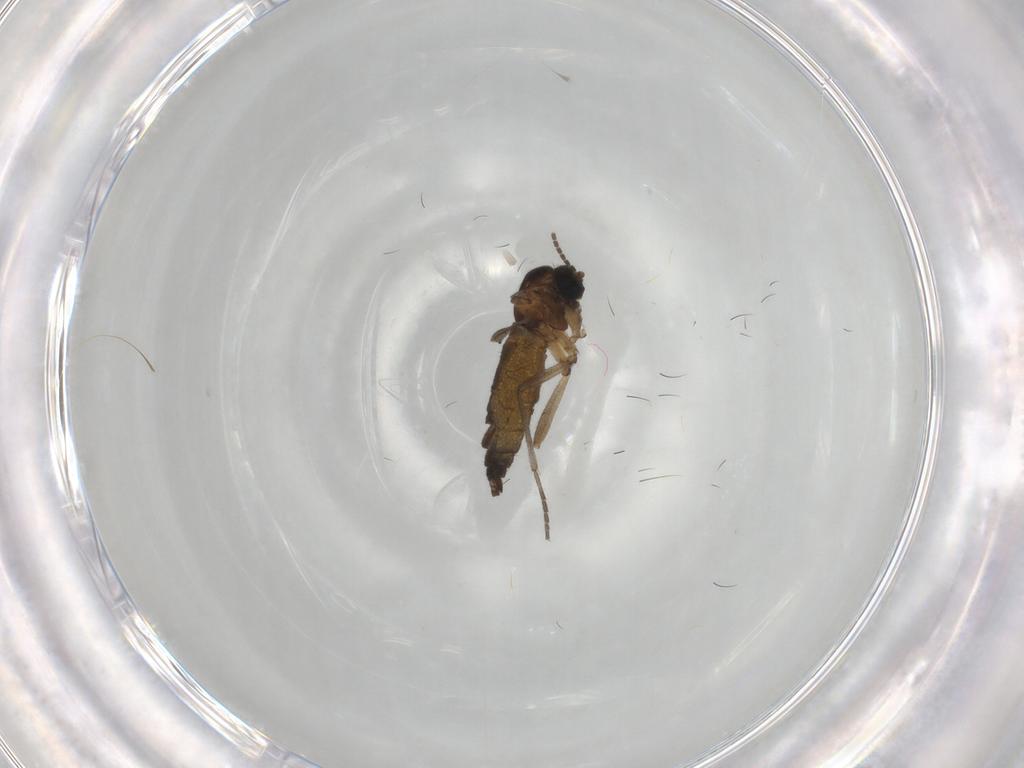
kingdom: Animalia
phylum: Arthropoda
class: Insecta
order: Diptera
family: Sciaridae
